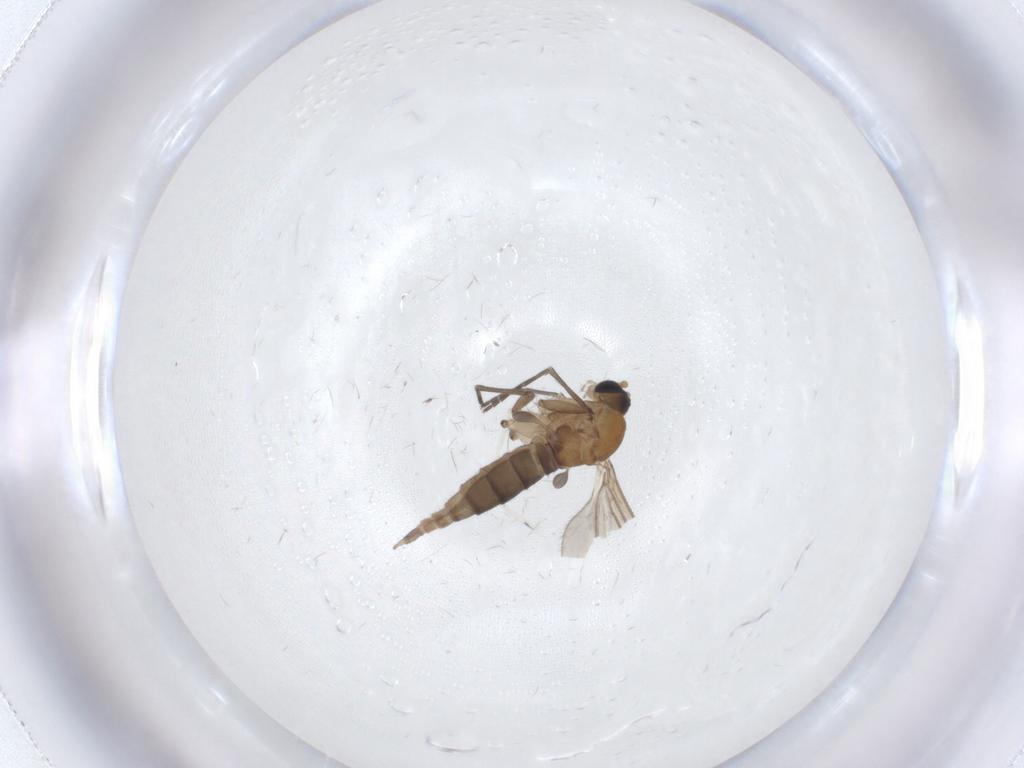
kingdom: Animalia
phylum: Arthropoda
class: Insecta
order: Diptera
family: Sciaridae
